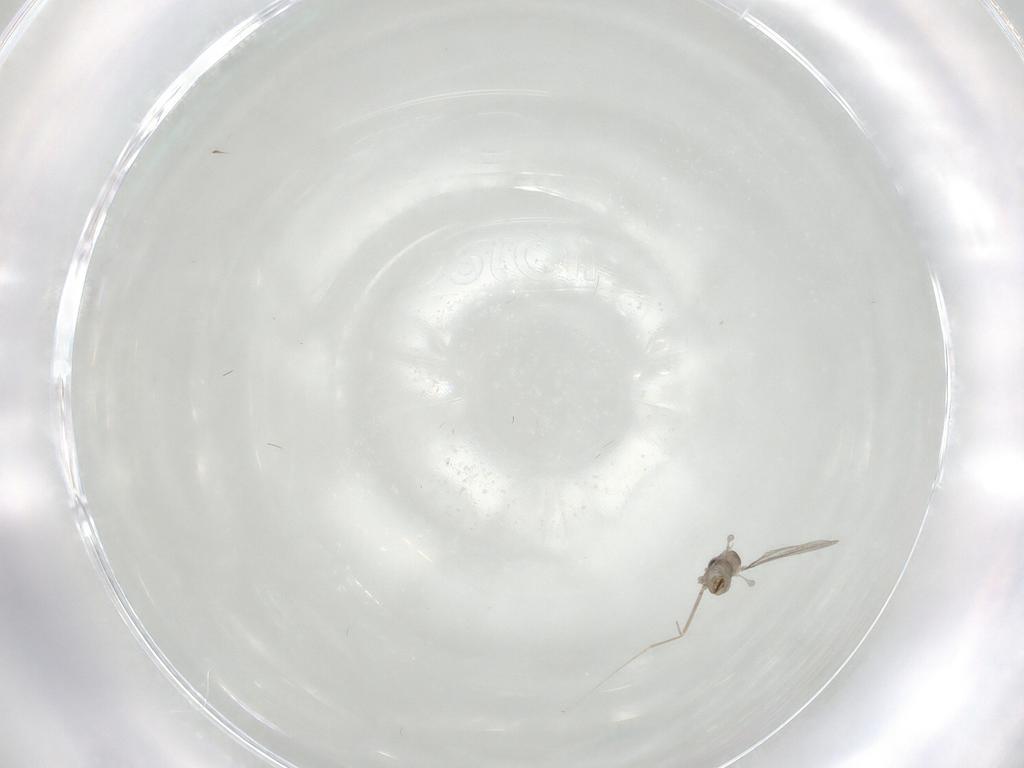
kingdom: Animalia
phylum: Arthropoda
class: Insecta
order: Diptera
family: Cecidomyiidae
